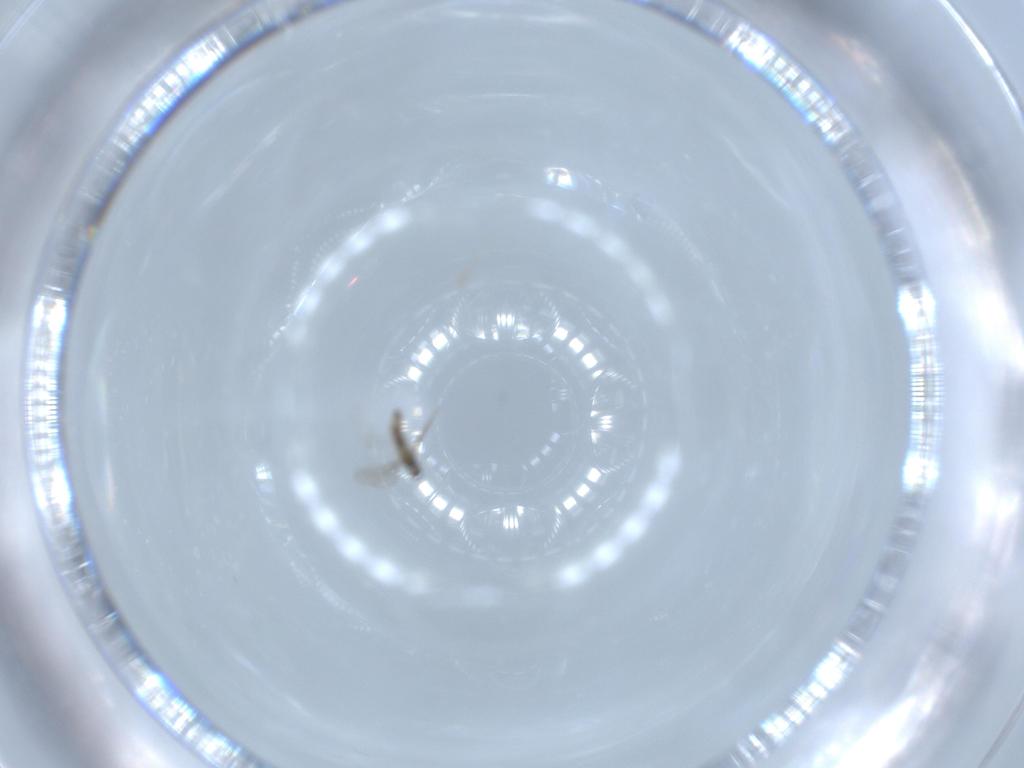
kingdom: Animalia
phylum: Arthropoda
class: Insecta
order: Diptera
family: Cecidomyiidae
